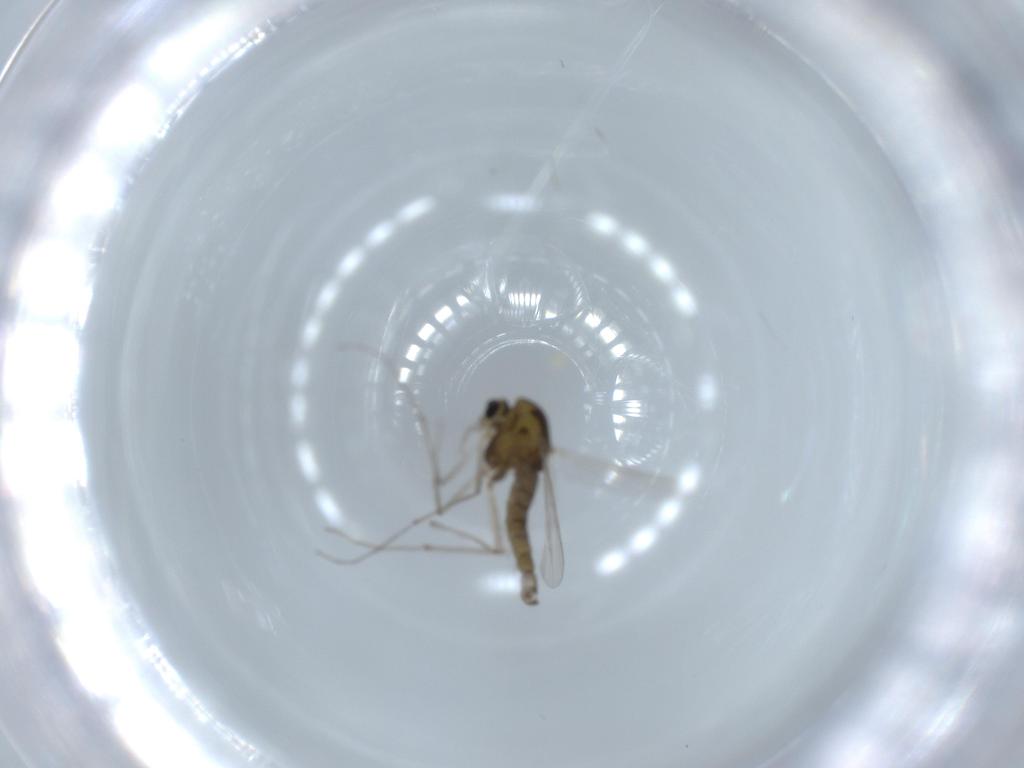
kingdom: Animalia
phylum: Arthropoda
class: Insecta
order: Diptera
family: Chironomidae
